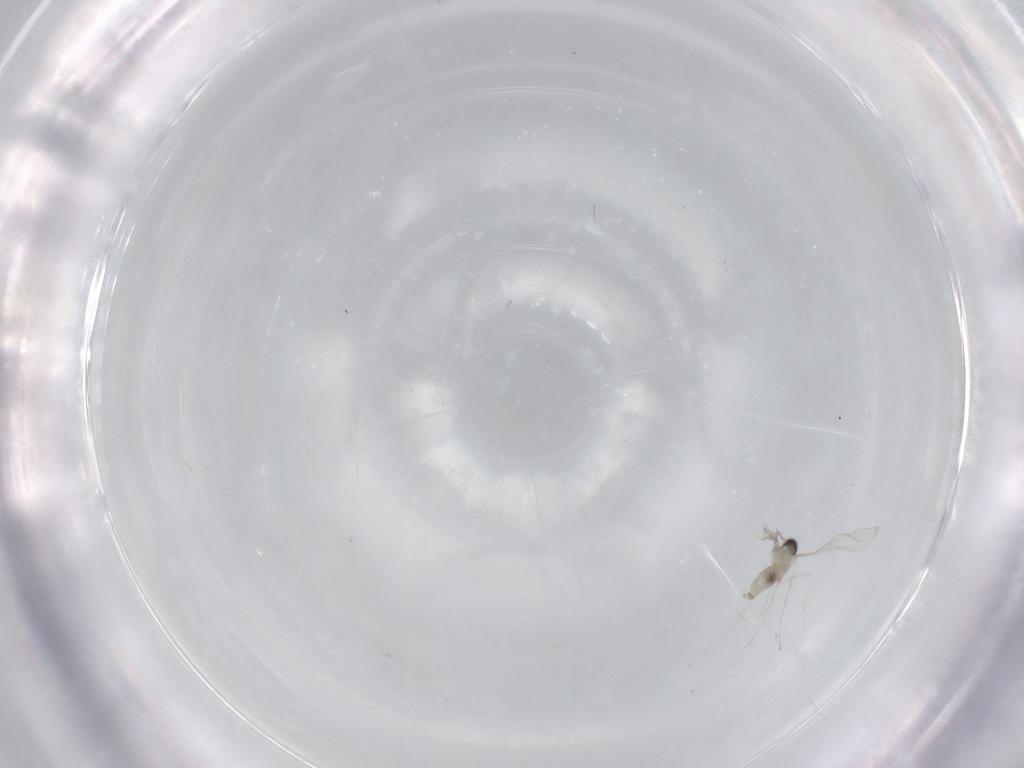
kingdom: Animalia
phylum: Arthropoda
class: Insecta
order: Diptera
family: Cecidomyiidae
